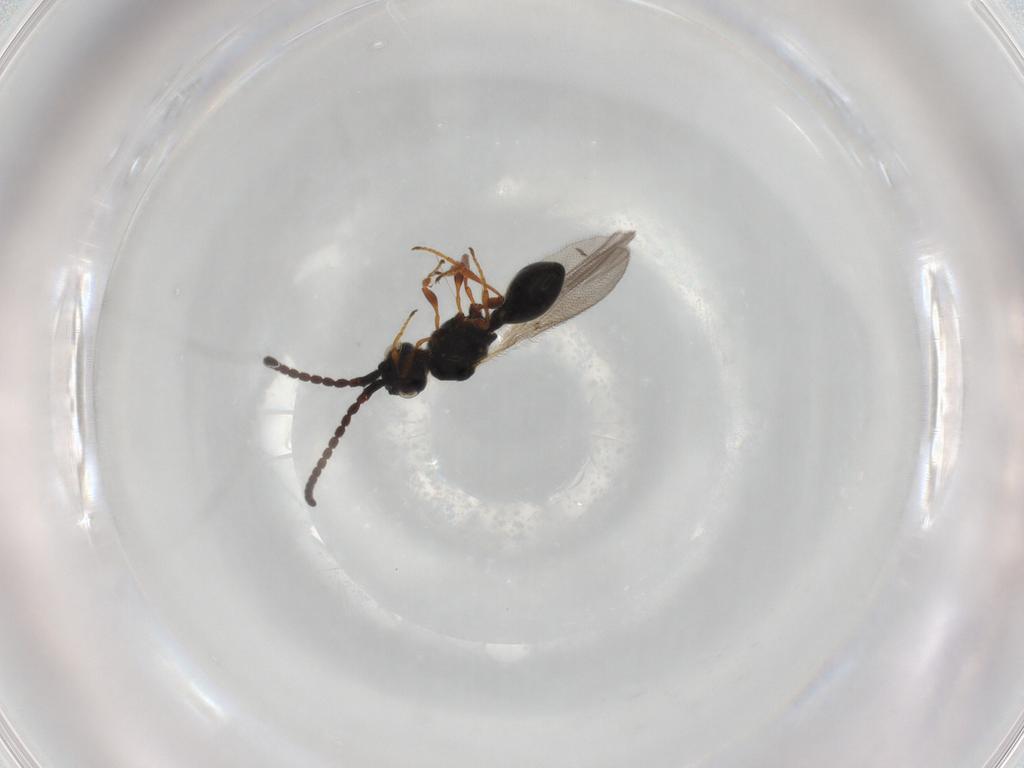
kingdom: Animalia
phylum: Arthropoda
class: Insecta
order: Hymenoptera
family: Diapriidae
